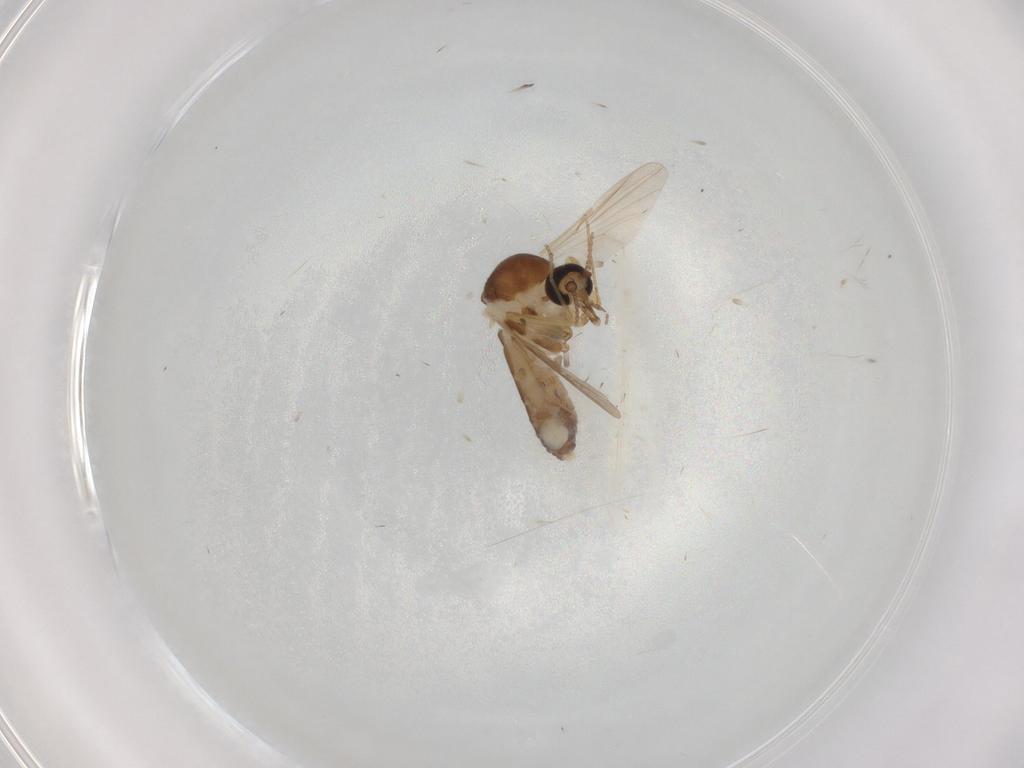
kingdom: Animalia
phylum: Arthropoda
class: Insecta
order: Diptera
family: Ceratopogonidae
